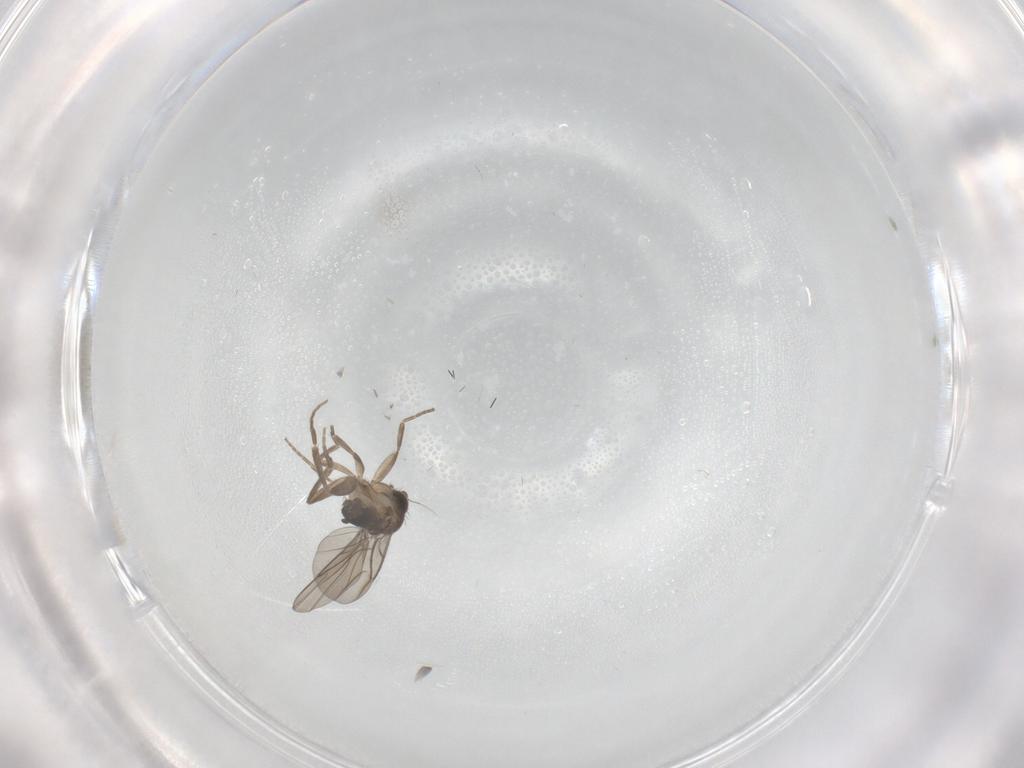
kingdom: Animalia
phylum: Arthropoda
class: Insecta
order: Diptera
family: Phoridae
